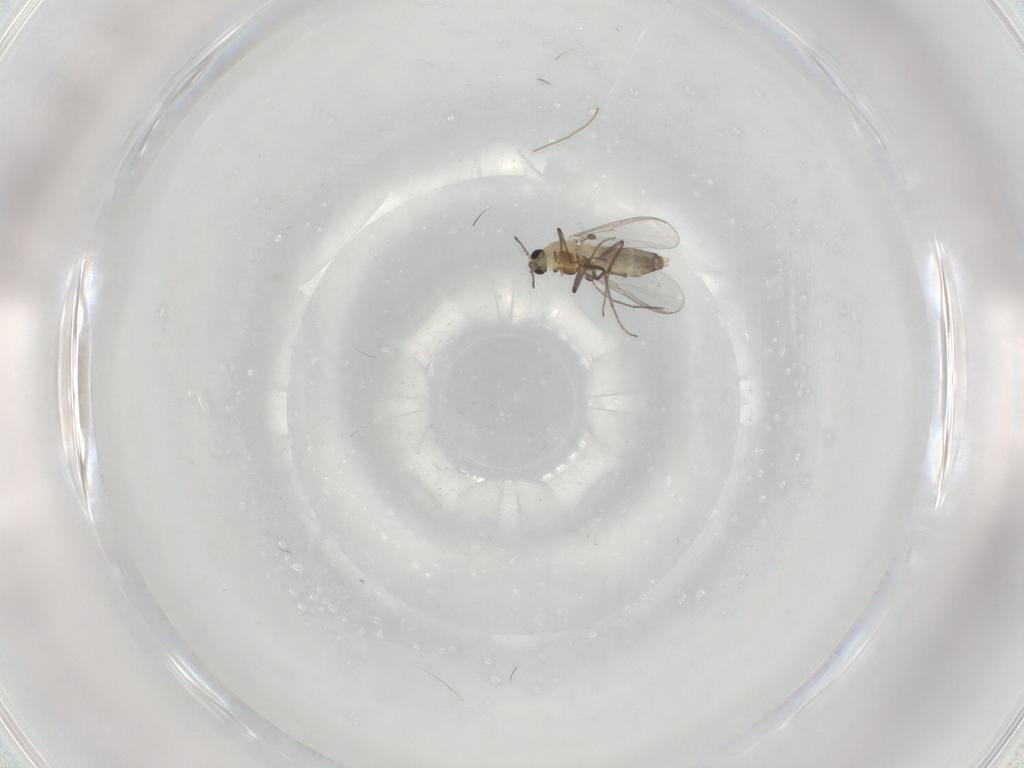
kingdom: Animalia
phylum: Arthropoda
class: Insecta
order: Diptera
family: Chironomidae
